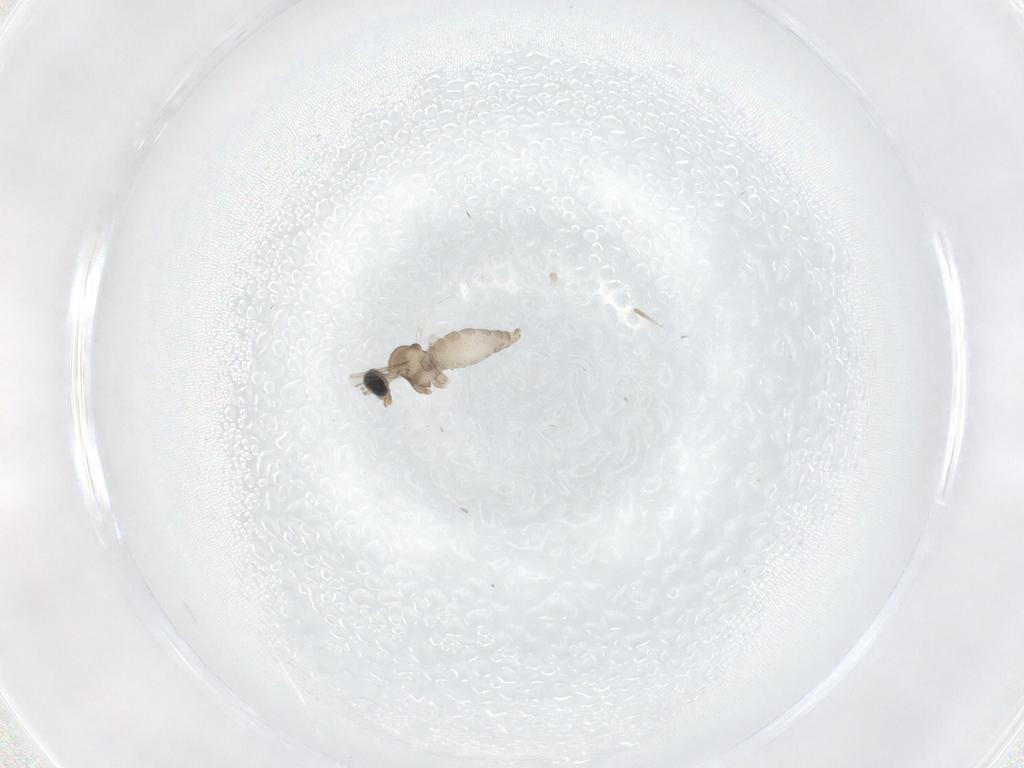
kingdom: Animalia
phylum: Arthropoda
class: Insecta
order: Diptera
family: Cecidomyiidae
